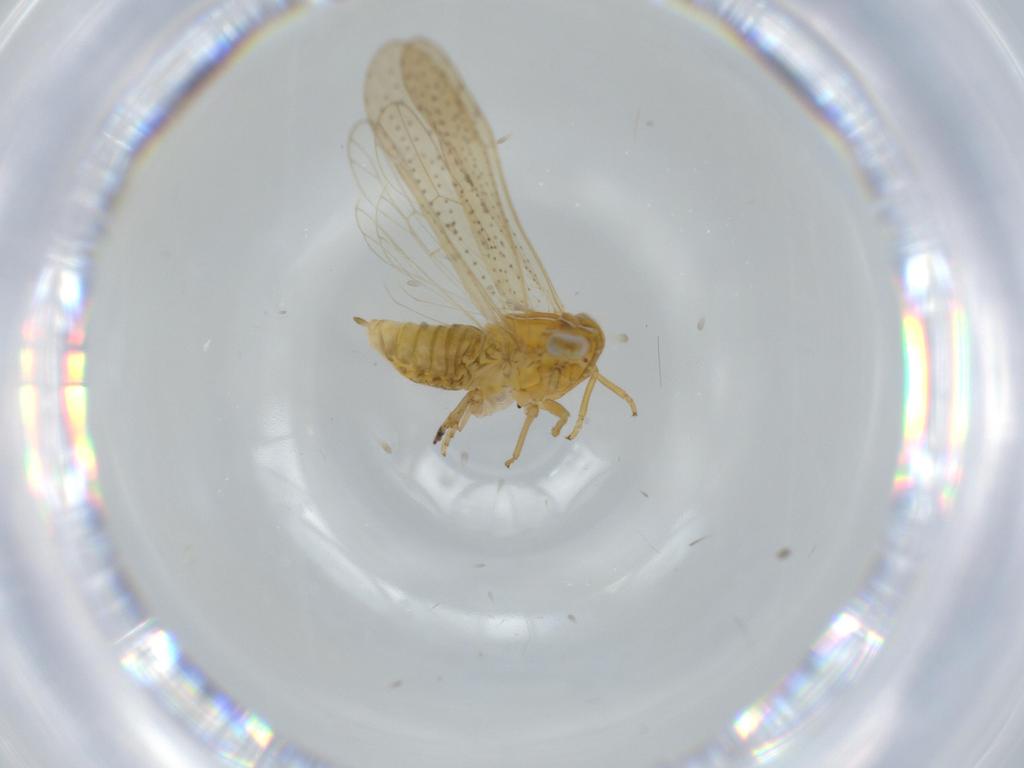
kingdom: Animalia
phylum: Arthropoda
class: Insecta
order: Hemiptera
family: Delphacidae
